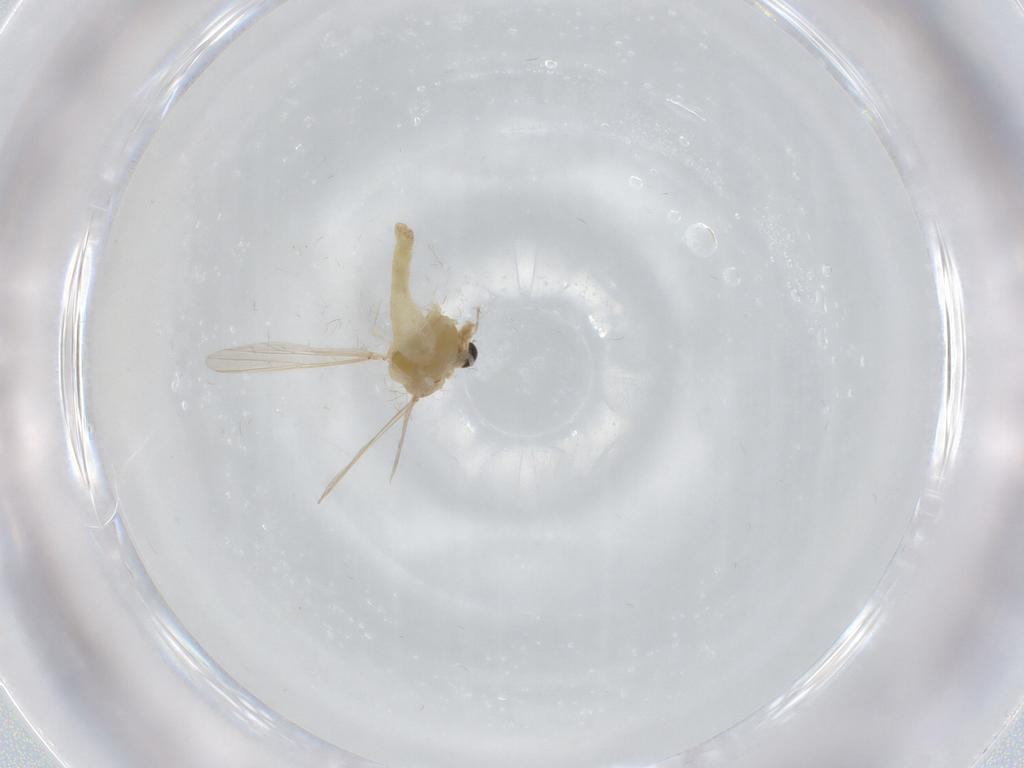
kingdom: Animalia
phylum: Arthropoda
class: Insecta
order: Diptera
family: Chironomidae
